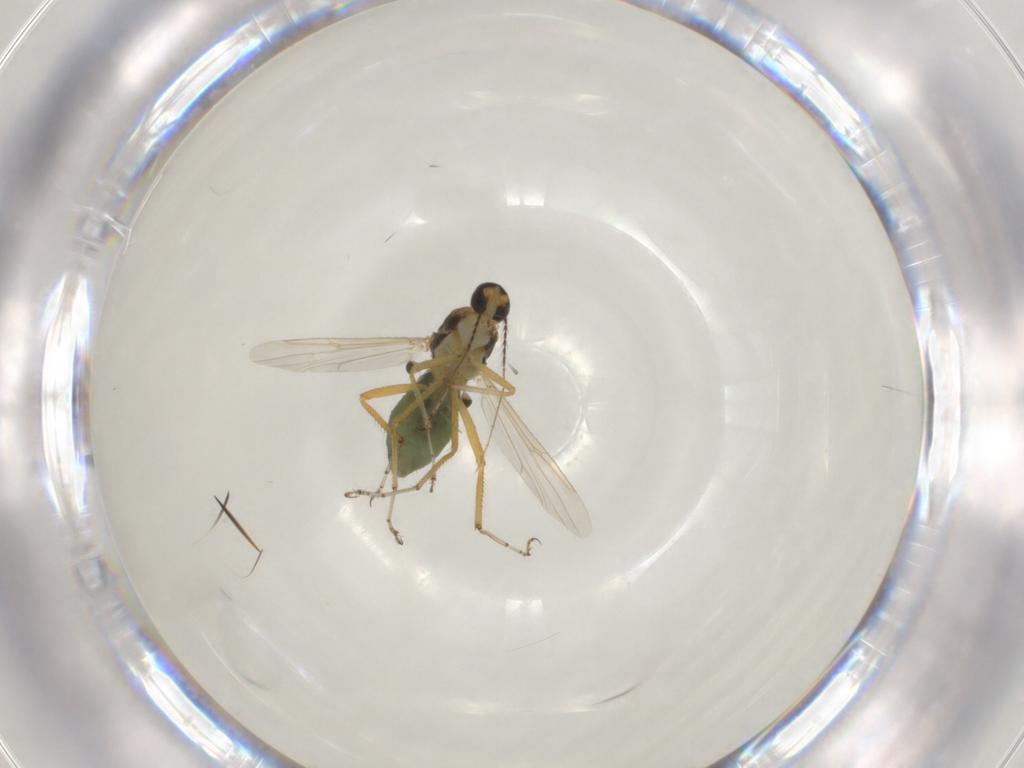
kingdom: Animalia
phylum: Arthropoda
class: Insecta
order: Diptera
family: Ceratopogonidae
